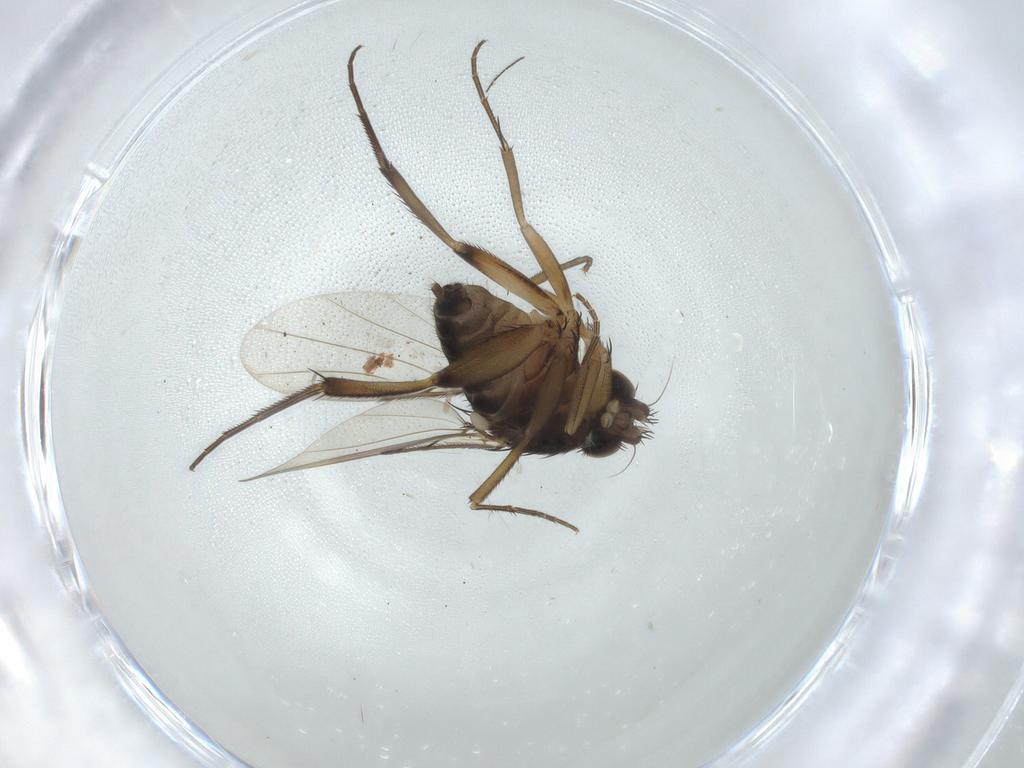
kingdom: Animalia
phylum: Arthropoda
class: Insecta
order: Diptera
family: Phoridae
